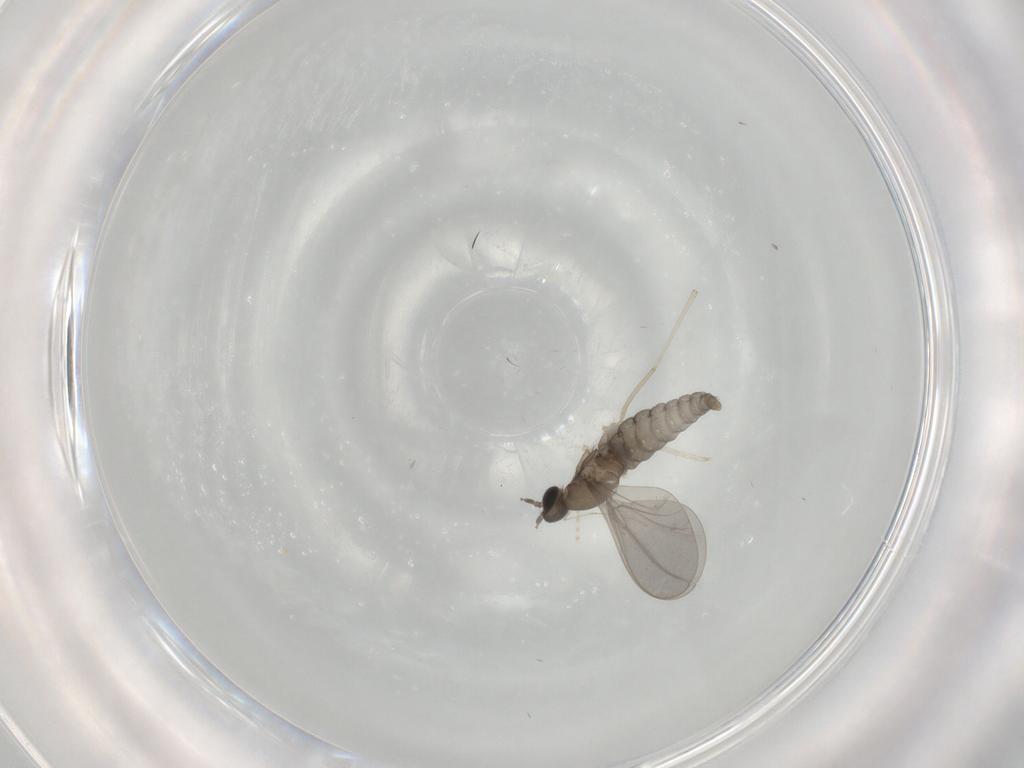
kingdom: Animalia
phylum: Arthropoda
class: Insecta
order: Diptera
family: Cecidomyiidae
